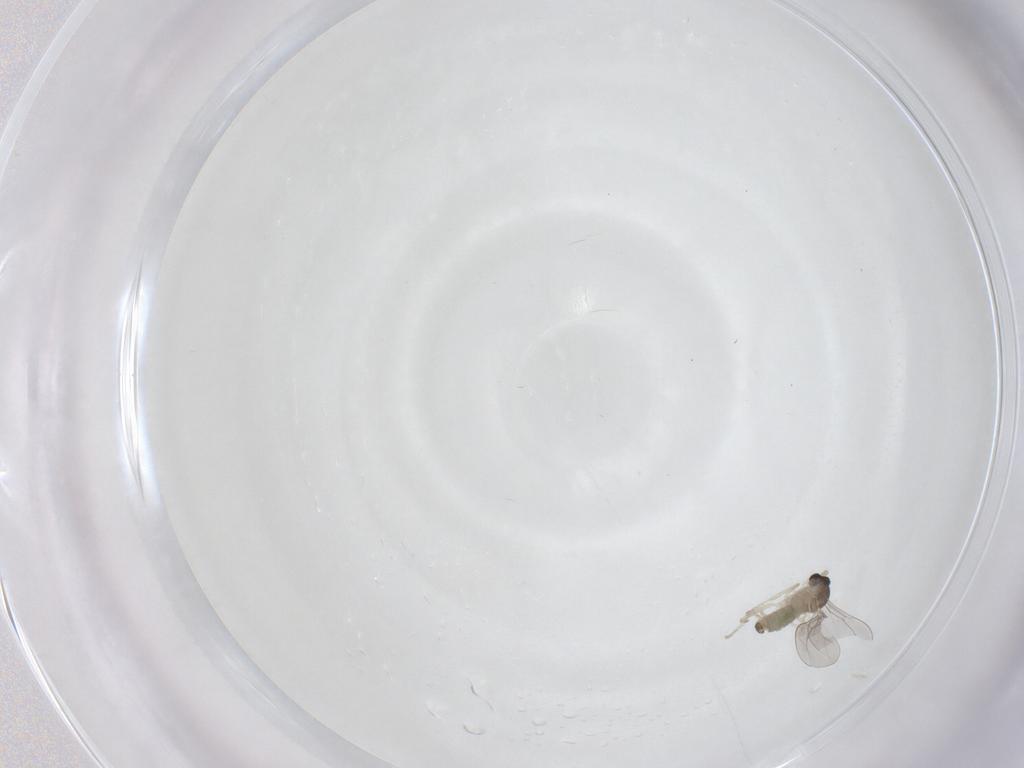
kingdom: Animalia
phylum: Arthropoda
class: Insecta
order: Diptera
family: Cecidomyiidae
